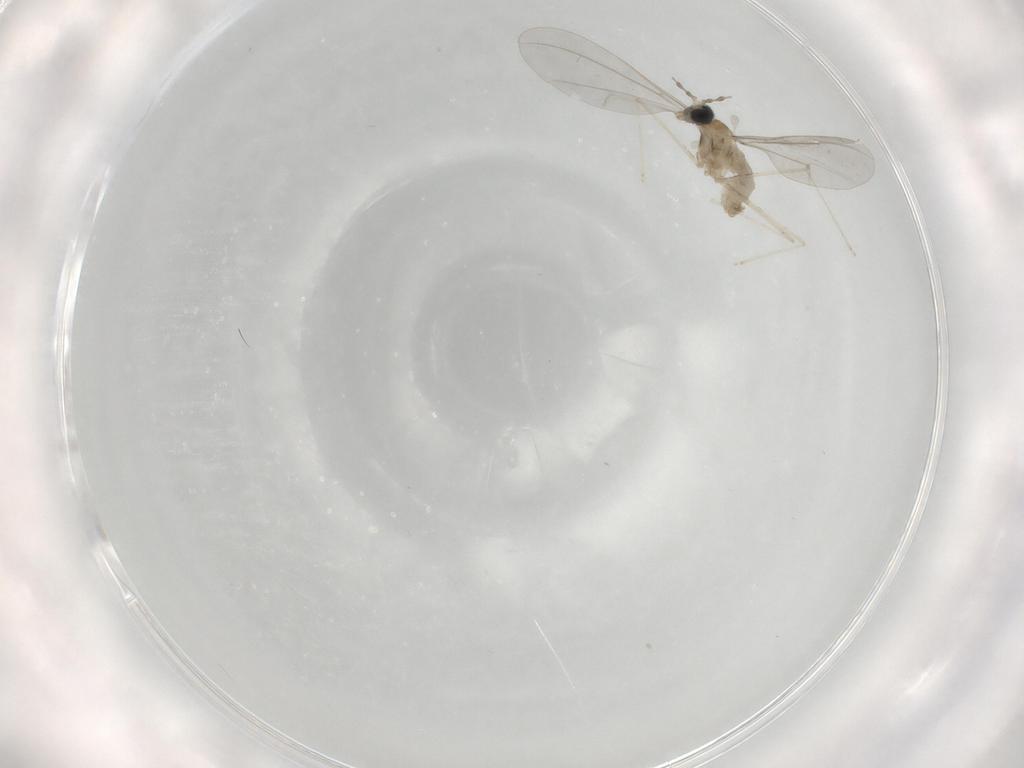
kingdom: Animalia
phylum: Arthropoda
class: Insecta
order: Diptera
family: Cecidomyiidae
